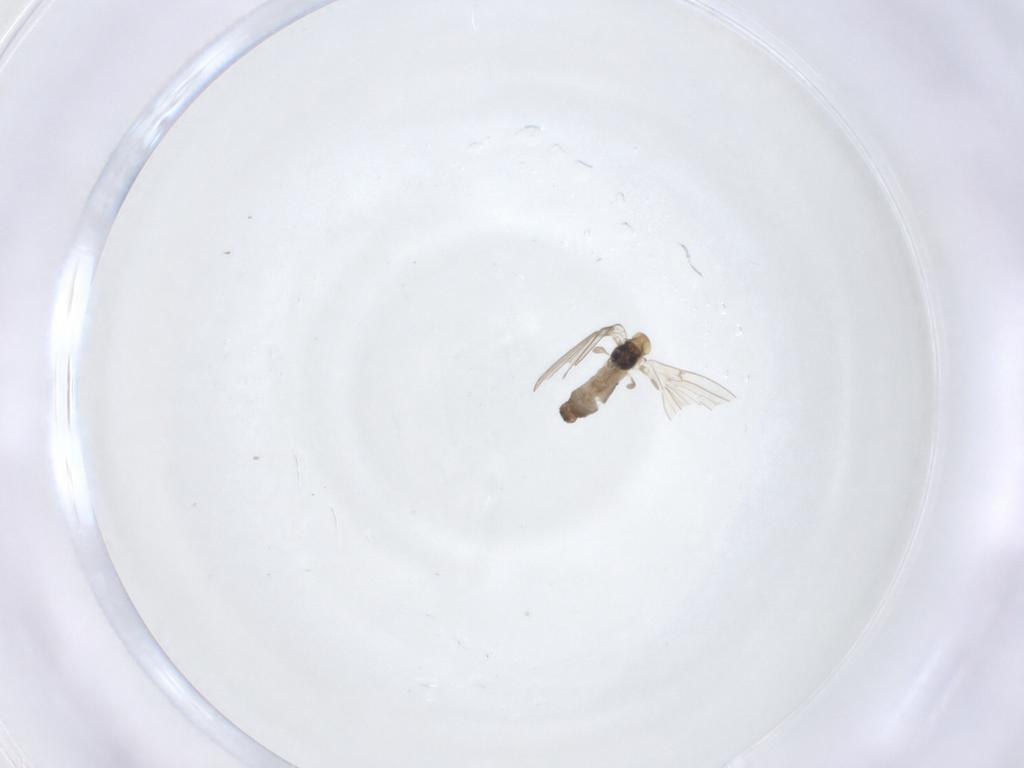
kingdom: Animalia
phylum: Arthropoda
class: Insecta
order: Diptera
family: Psychodidae
